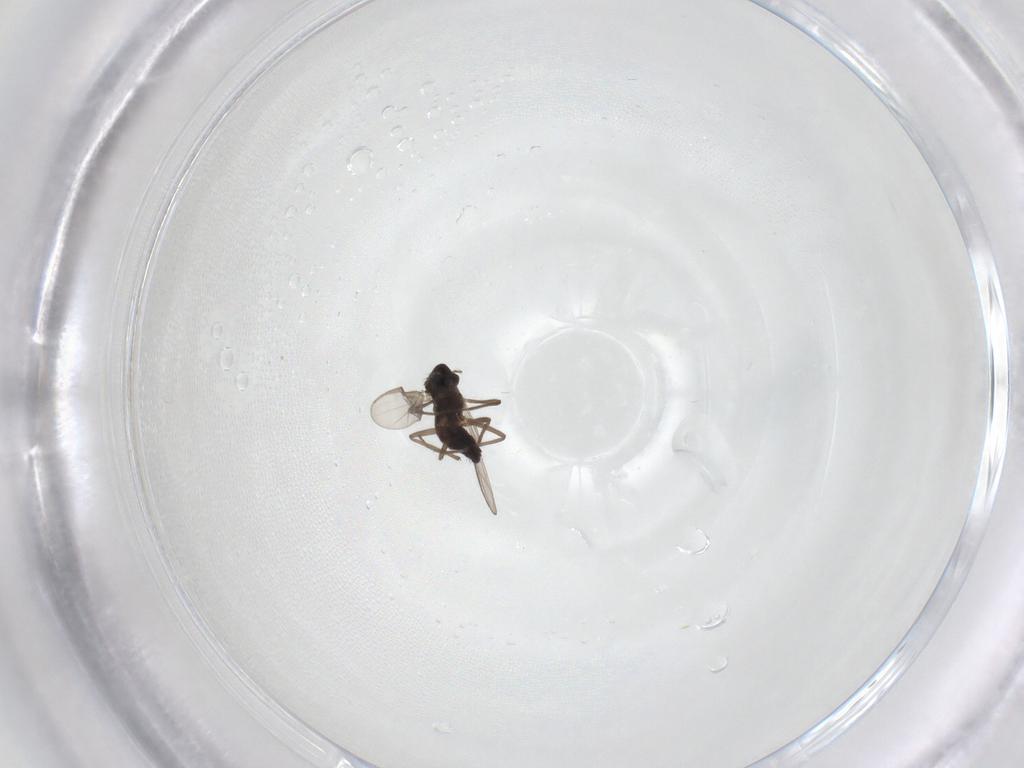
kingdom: Animalia
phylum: Arthropoda
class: Insecta
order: Diptera
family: Chironomidae
